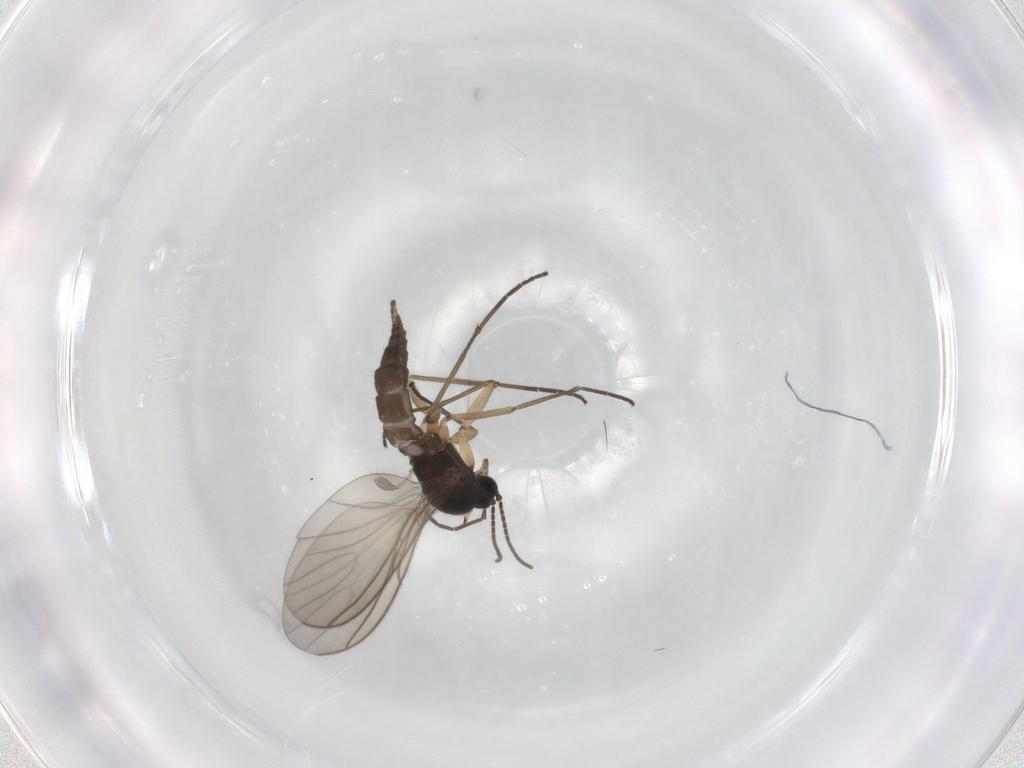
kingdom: Animalia
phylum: Arthropoda
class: Insecta
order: Diptera
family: Sciaridae
